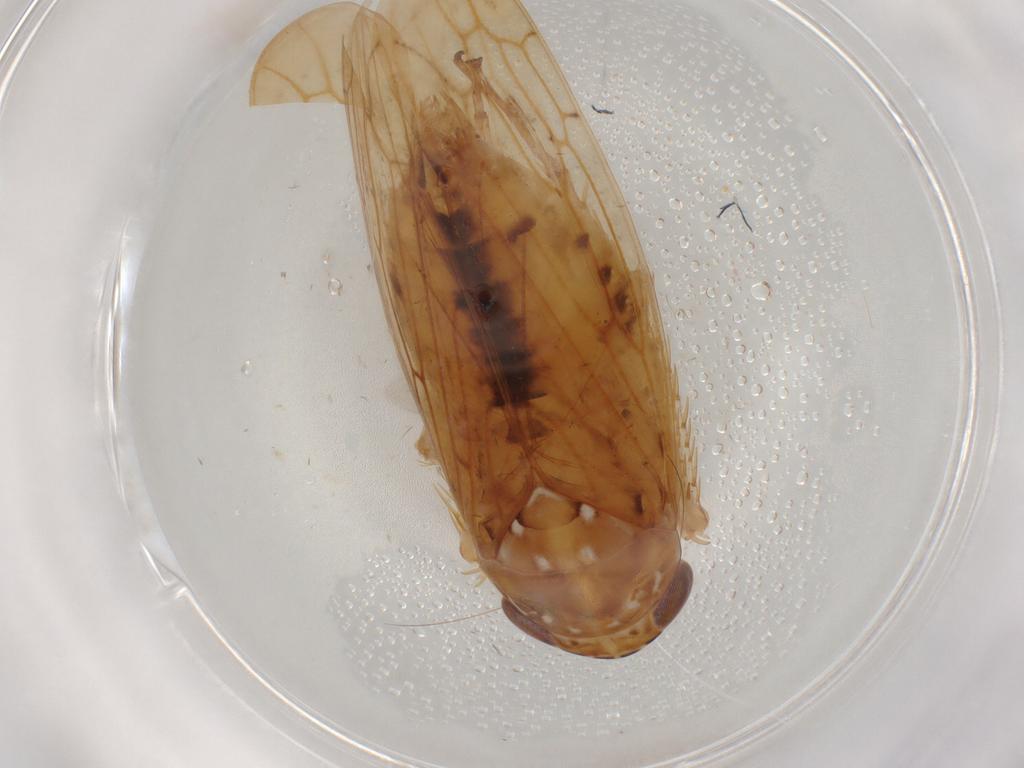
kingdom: Animalia
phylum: Arthropoda
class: Insecta
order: Hemiptera
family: Cicadellidae
